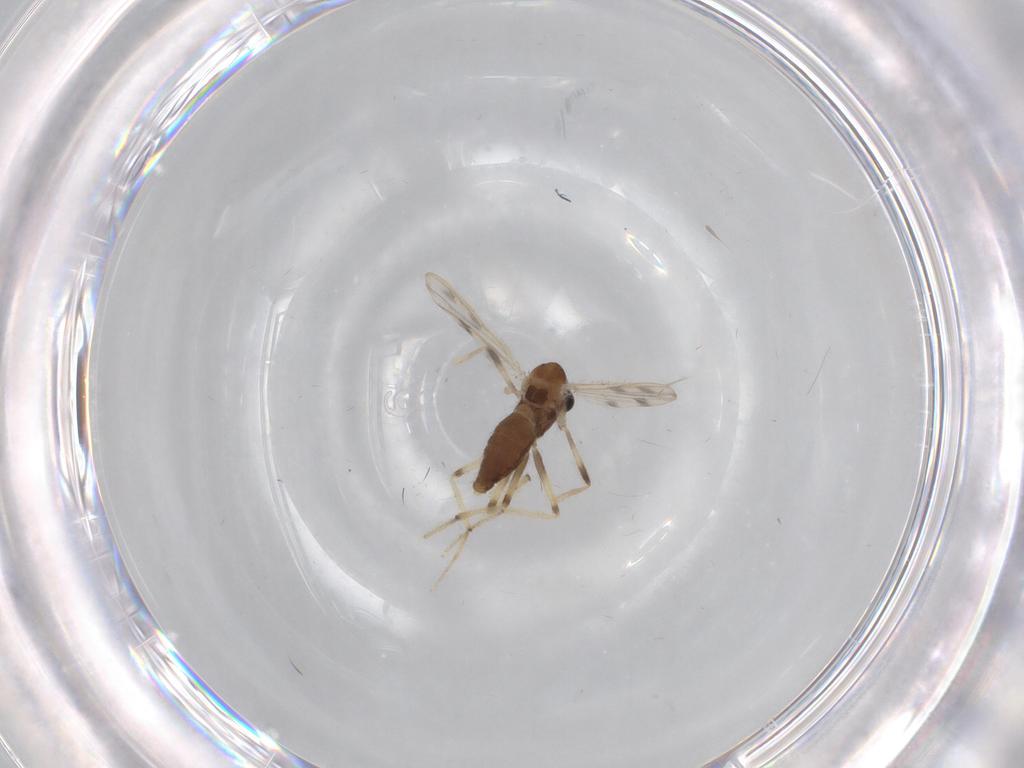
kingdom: Animalia
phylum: Arthropoda
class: Insecta
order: Diptera
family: Chironomidae
